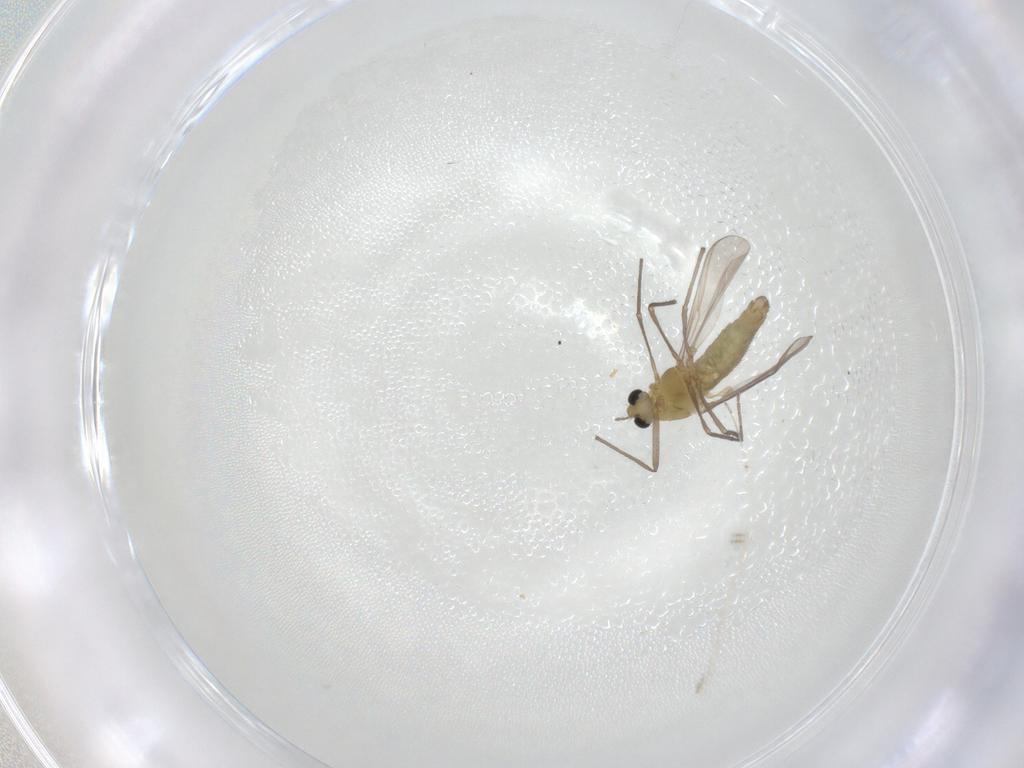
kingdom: Animalia
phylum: Arthropoda
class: Insecta
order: Diptera
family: Chironomidae
